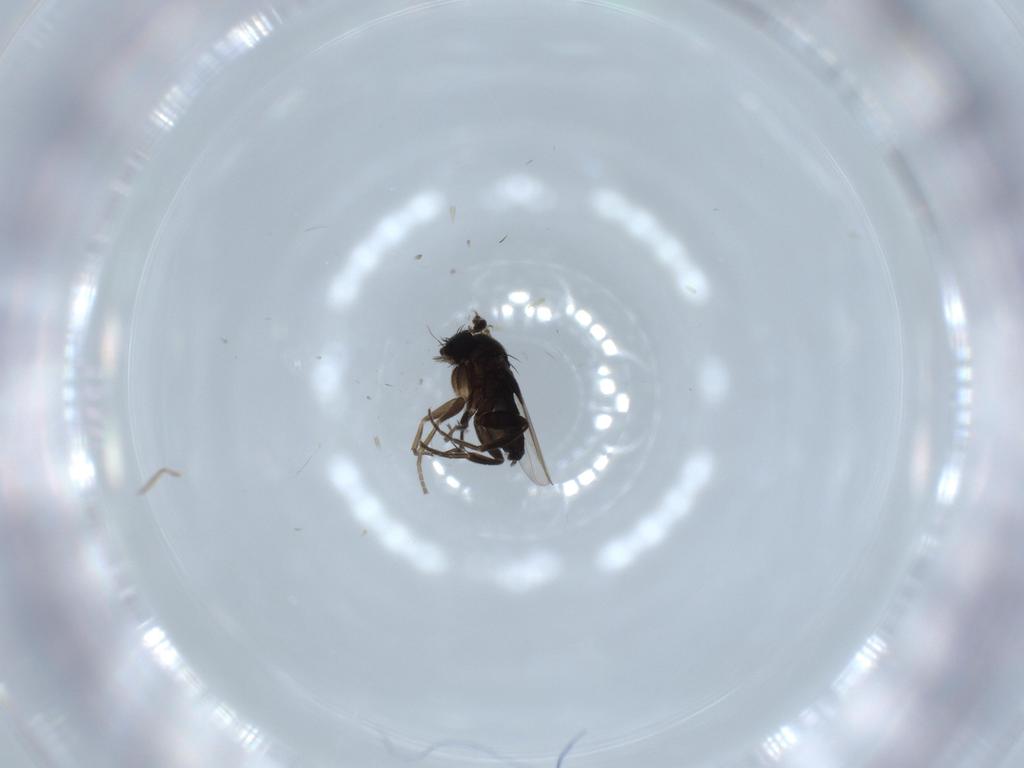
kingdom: Animalia
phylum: Arthropoda
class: Insecta
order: Diptera
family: Phoridae
